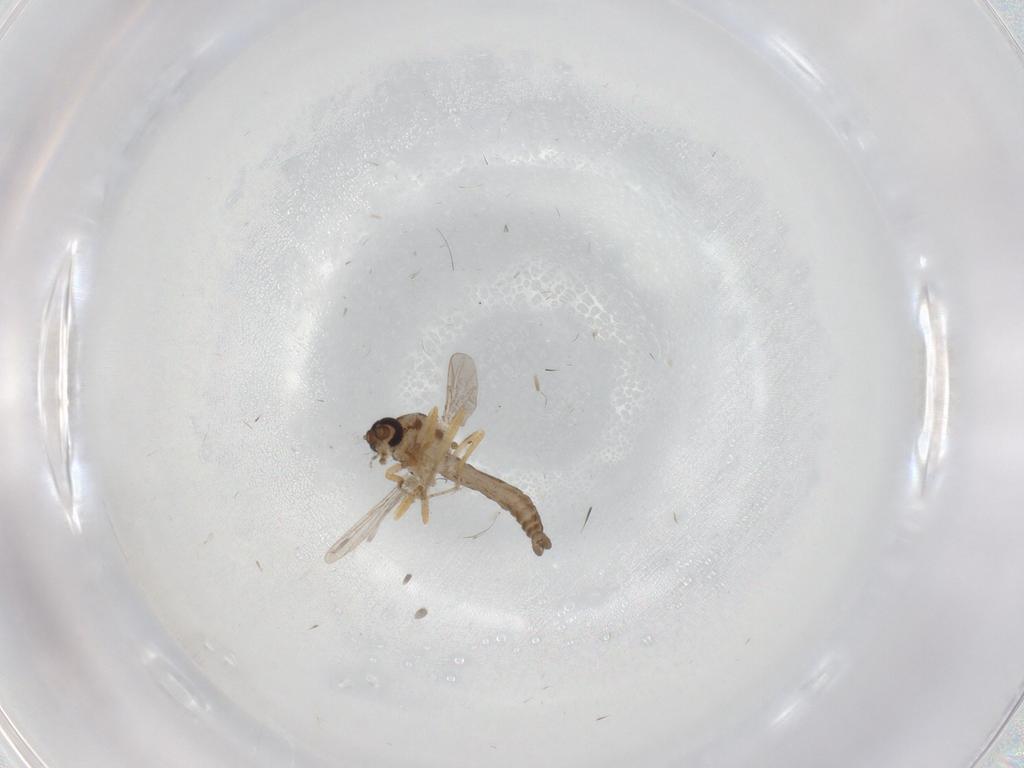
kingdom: Animalia
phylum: Arthropoda
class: Insecta
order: Diptera
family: Ceratopogonidae
